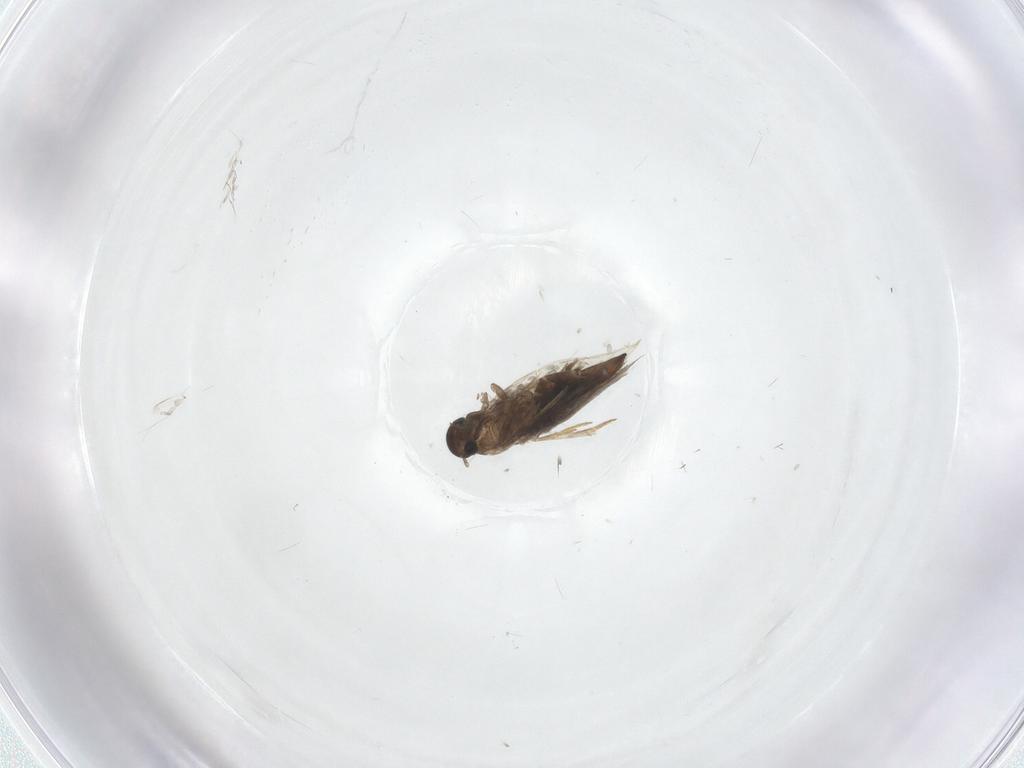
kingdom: Animalia
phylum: Arthropoda
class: Insecta
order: Diptera
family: Sciaridae
